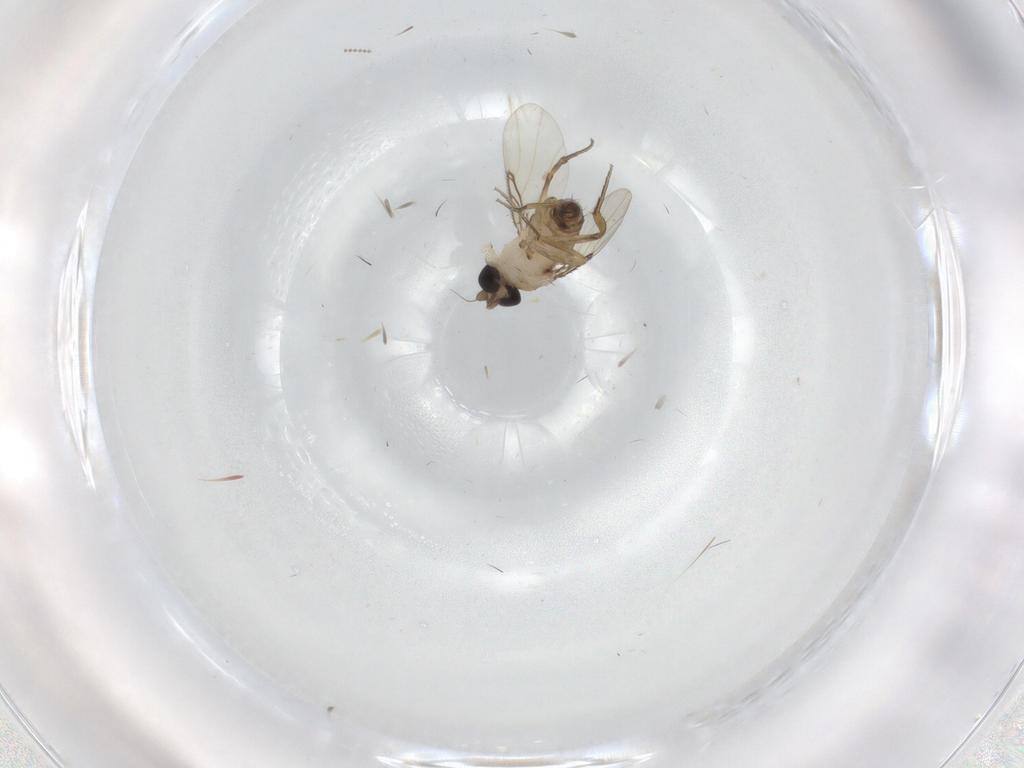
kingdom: Animalia
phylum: Arthropoda
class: Insecta
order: Diptera
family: Phoridae
